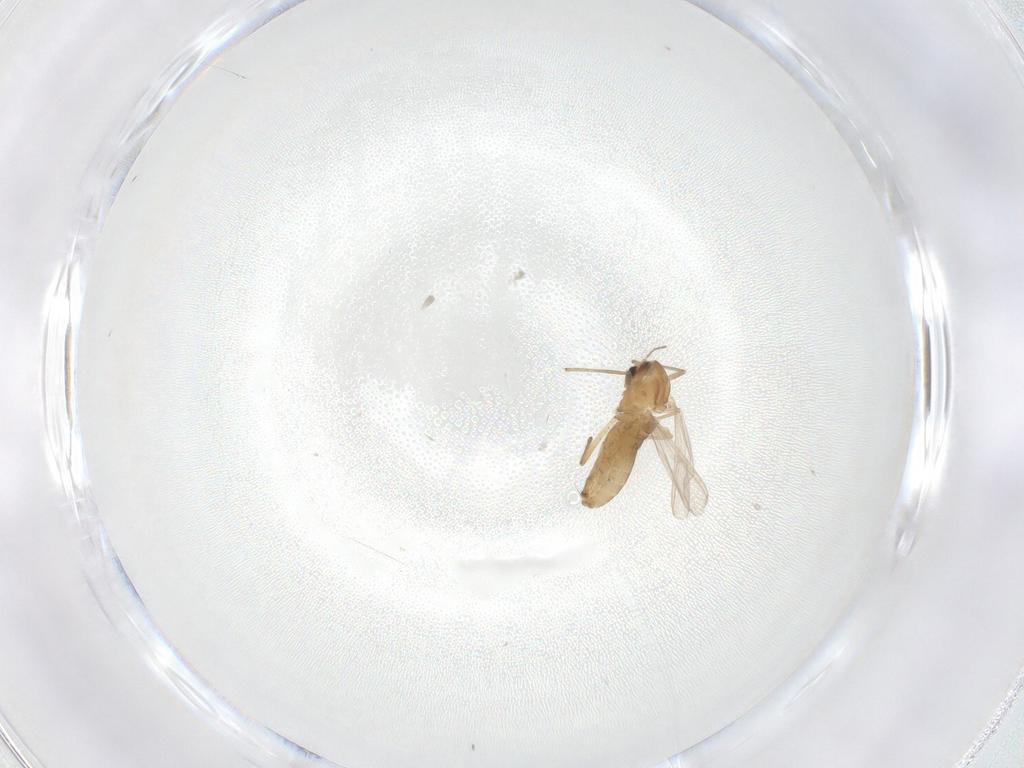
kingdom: Animalia
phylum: Arthropoda
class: Insecta
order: Diptera
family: Chironomidae
